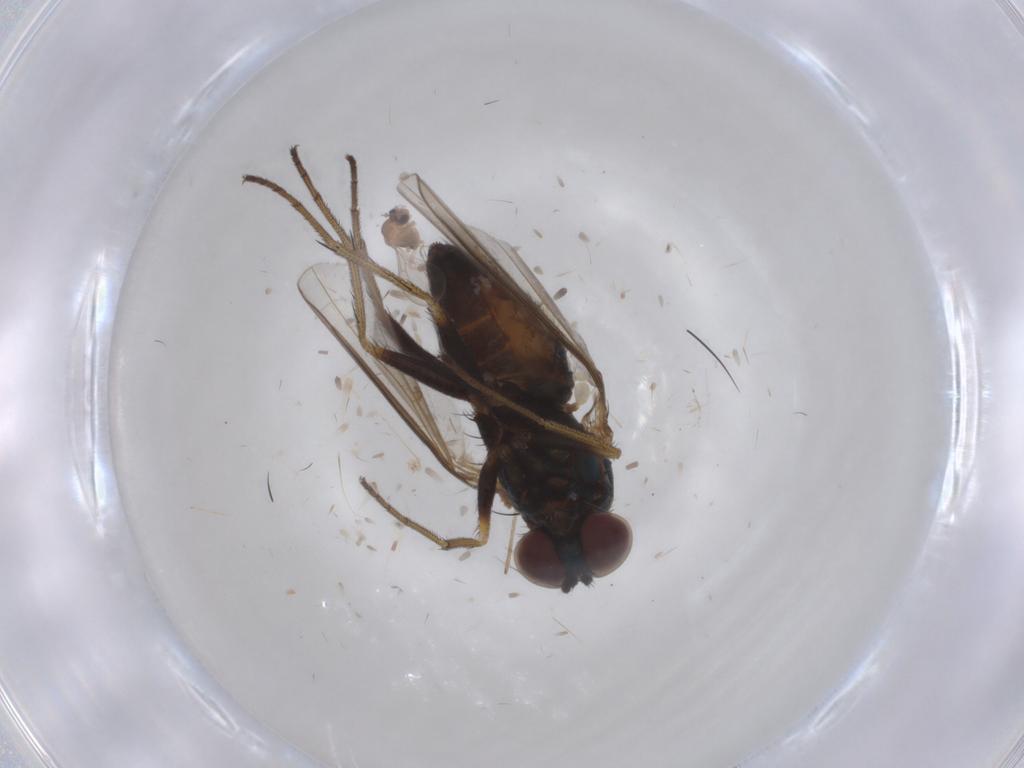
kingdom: Animalia
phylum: Arthropoda
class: Insecta
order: Diptera
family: Dolichopodidae
